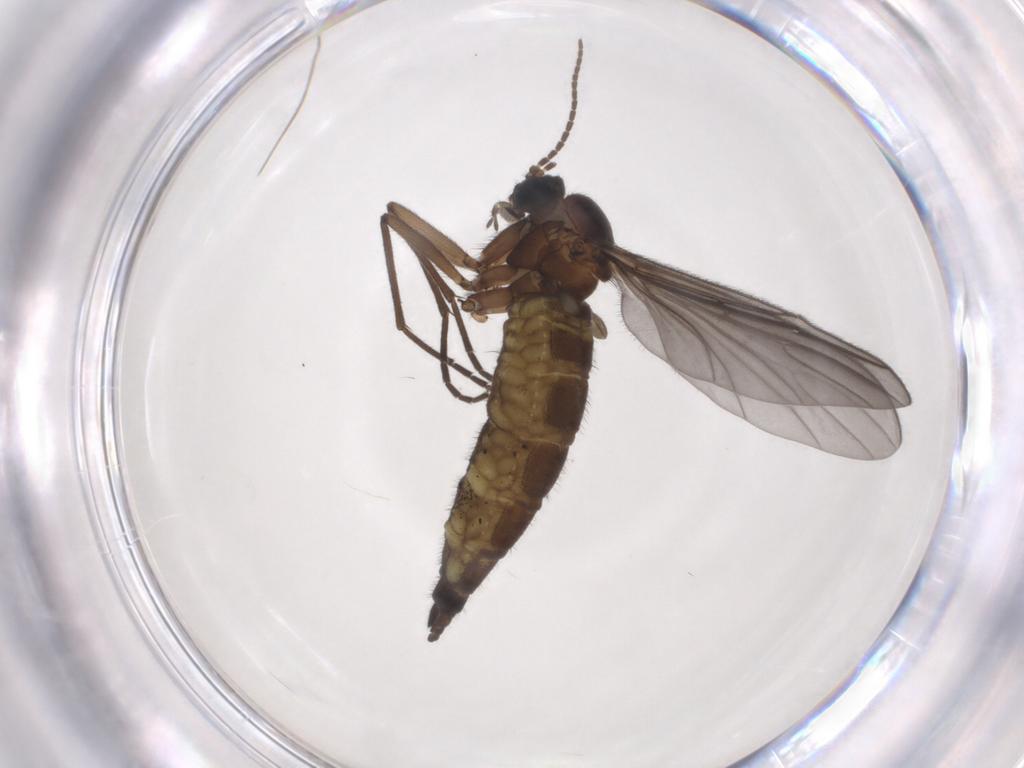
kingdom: Animalia
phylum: Arthropoda
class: Insecta
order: Diptera
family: Sciaridae
